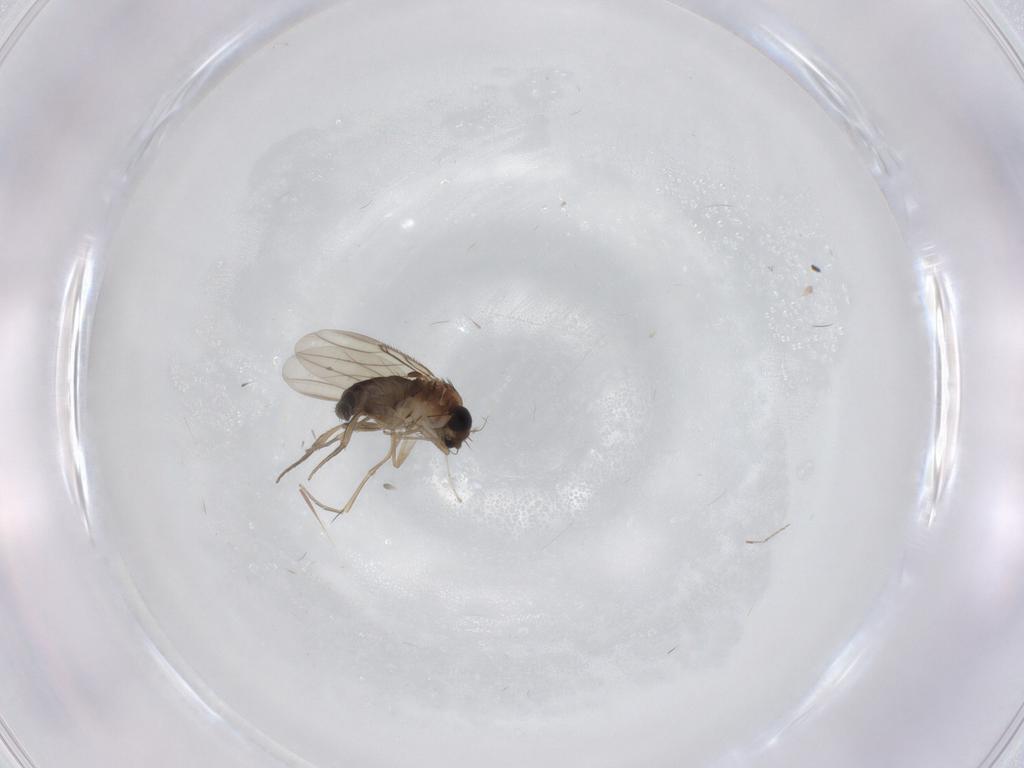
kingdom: Animalia
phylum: Arthropoda
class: Insecta
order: Diptera
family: Phoridae
